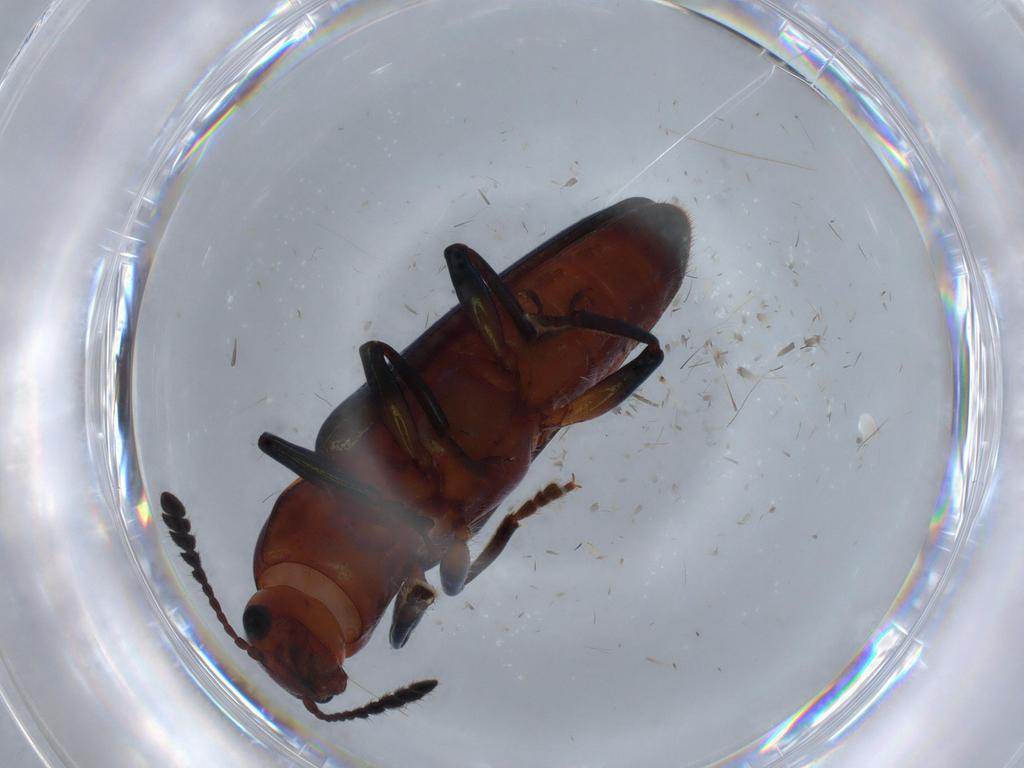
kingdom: Animalia
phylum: Arthropoda
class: Insecta
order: Coleoptera
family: Erotylidae
